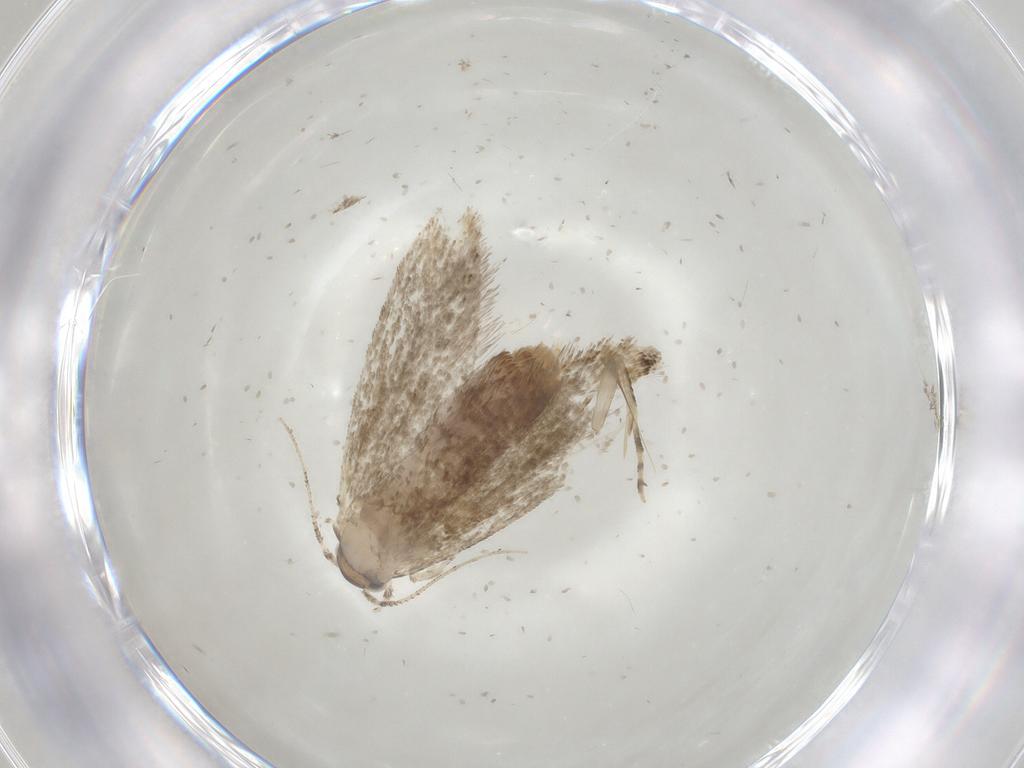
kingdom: Animalia
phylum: Arthropoda
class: Insecta
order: Lepidoptera
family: Tineidae
